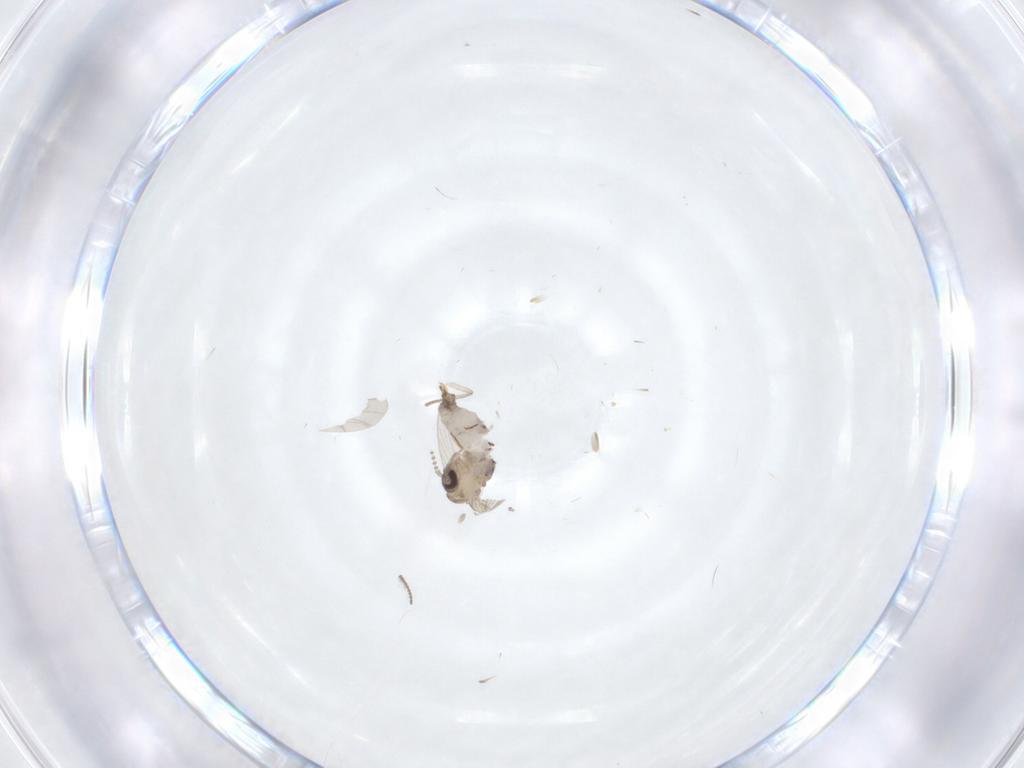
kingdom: Animalia
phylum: Arthropoda
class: Insecta
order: Diptera
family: Psychodidae
